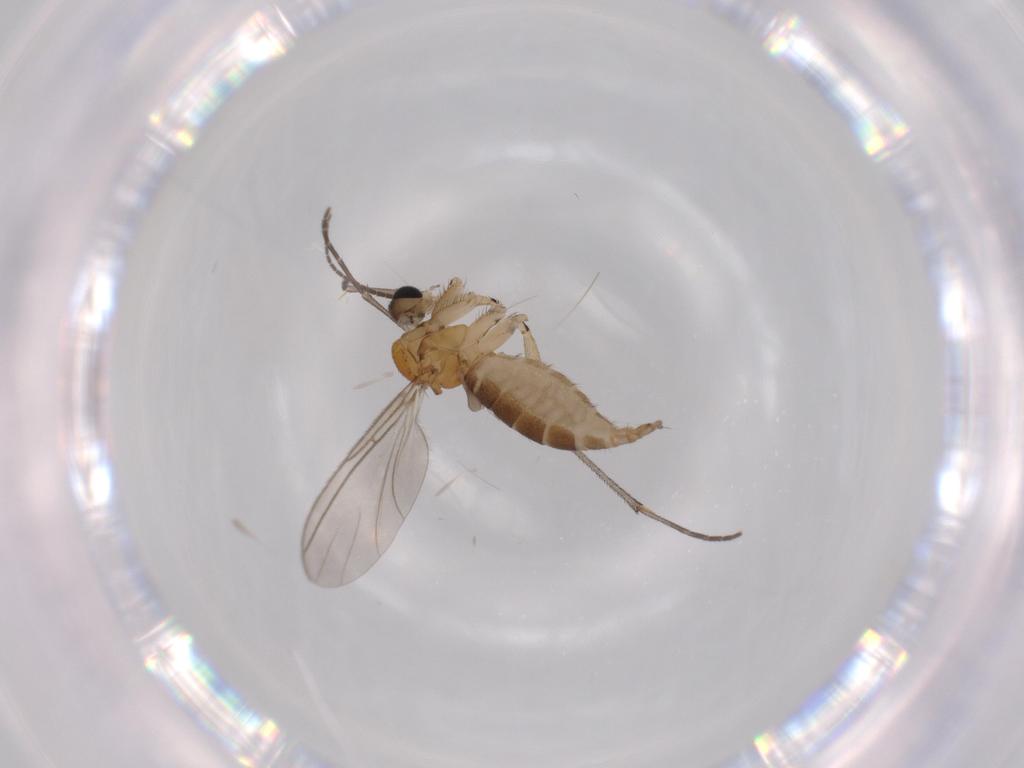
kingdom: Animalia
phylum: Arthropoda
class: Insecta
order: Diptera
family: Sciaridae
